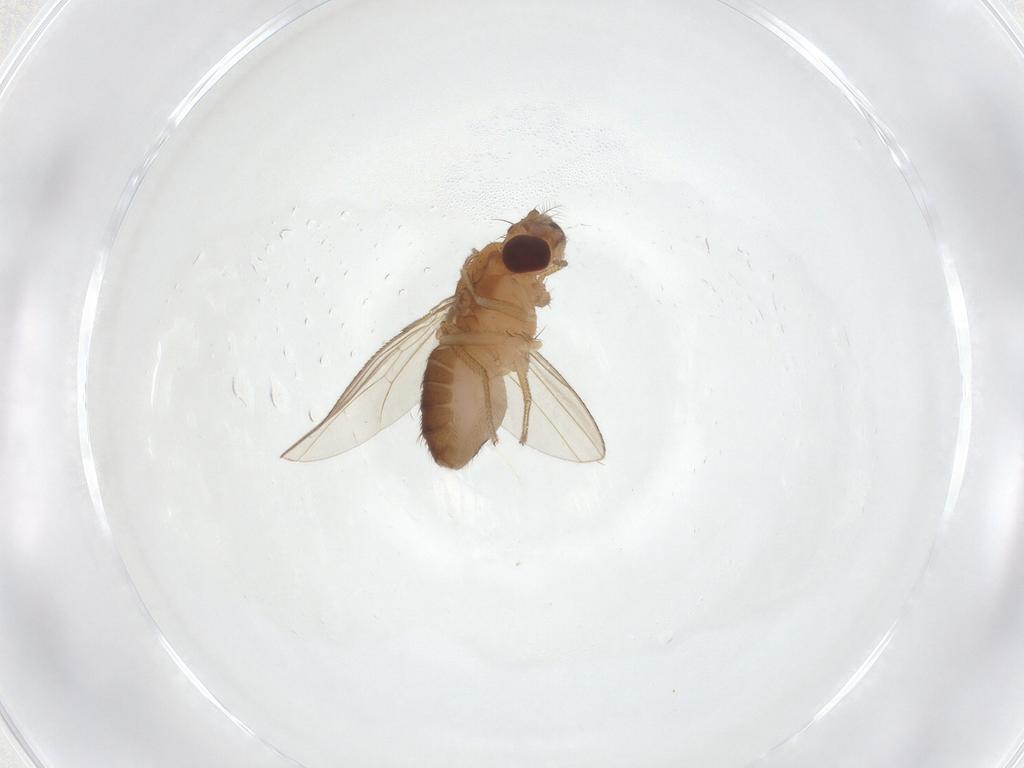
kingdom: Animalia
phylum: Arthropoda
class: Insecta
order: Diptera
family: Drosophilidae
